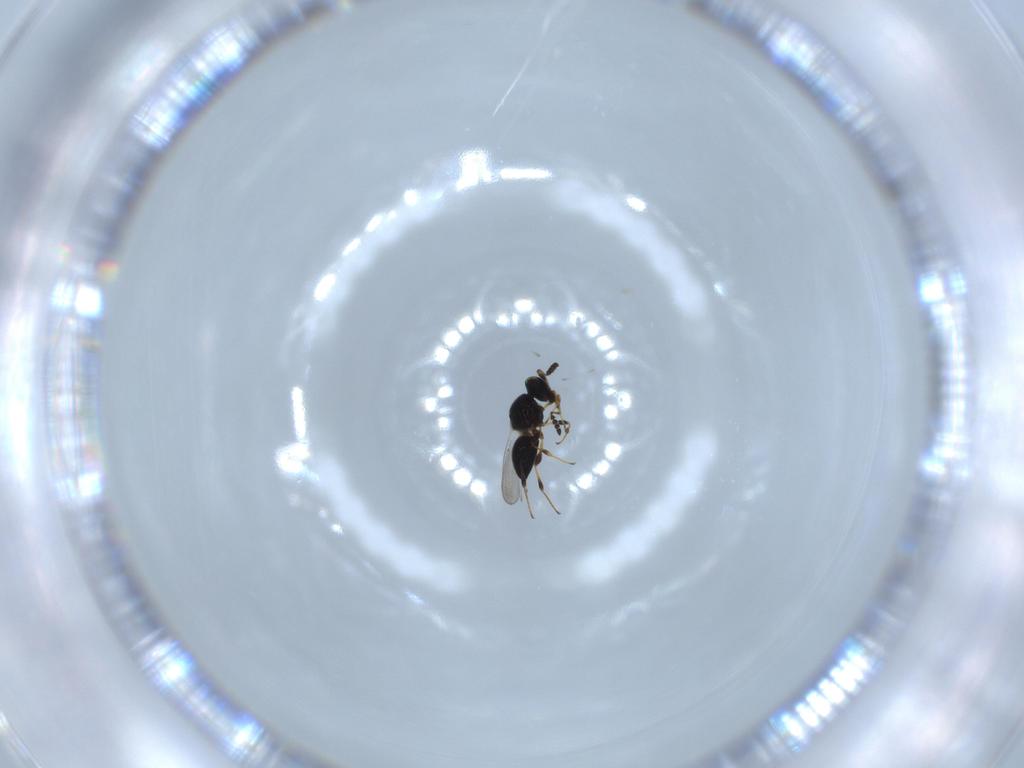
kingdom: Animalia
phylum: Arthropoda
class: Insecta
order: Hymenoptera
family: Platygastridae
